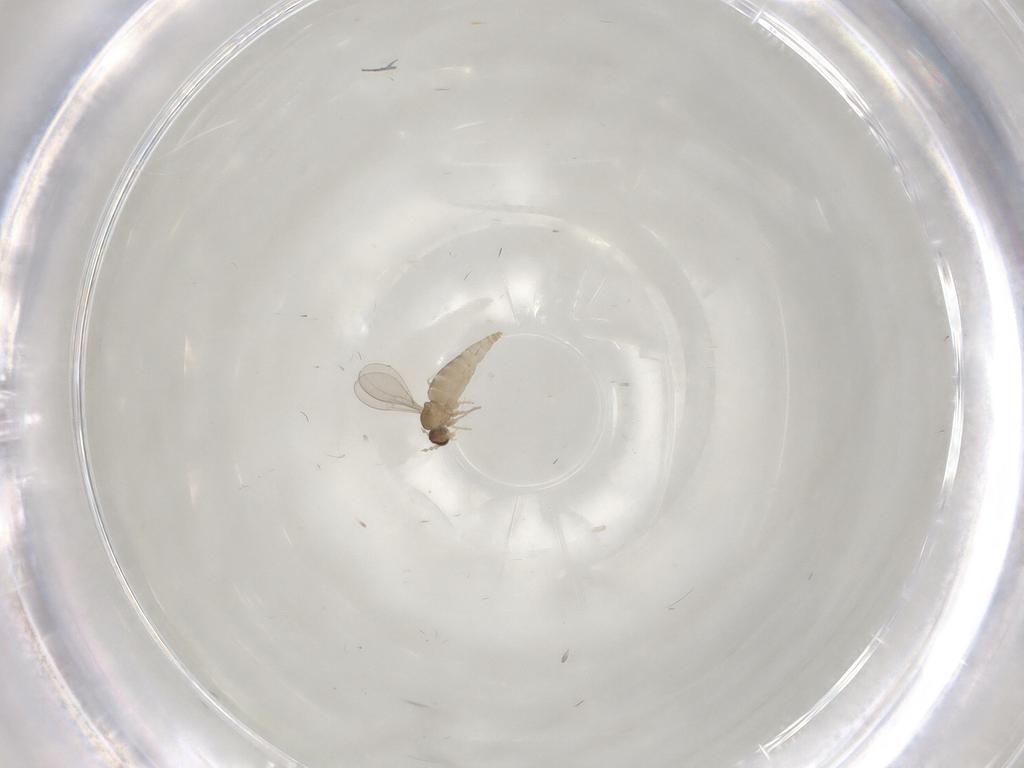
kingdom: Animalia
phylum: Arthropoda
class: Insecta
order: Diptera
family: Cecidomyiidae
